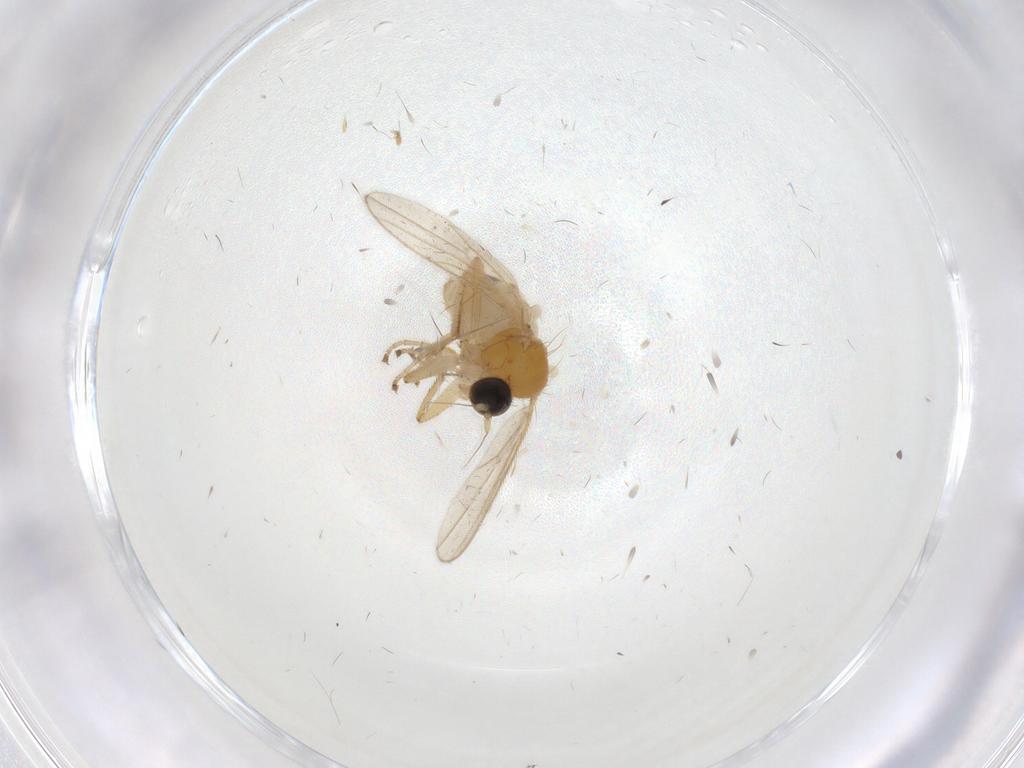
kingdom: Animalia
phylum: Arthropoda
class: Insecta
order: Diptera
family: Hybotidae
